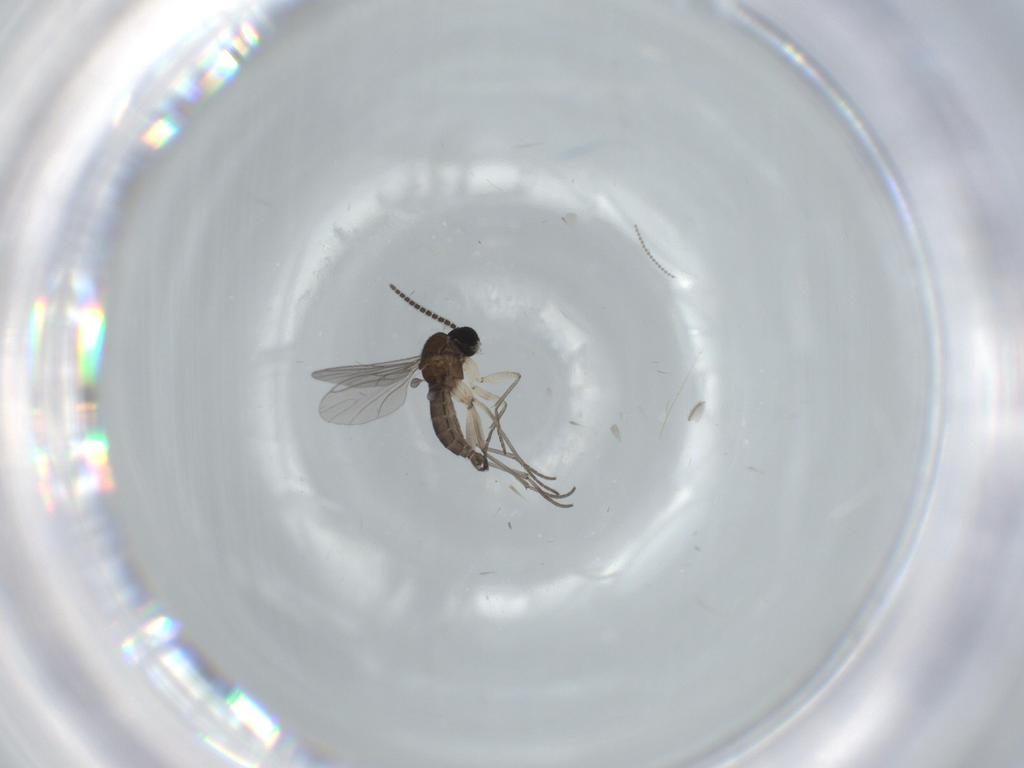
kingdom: Animalia
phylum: Arthropoda
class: Insecta
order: Diptera
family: Sciaridae
